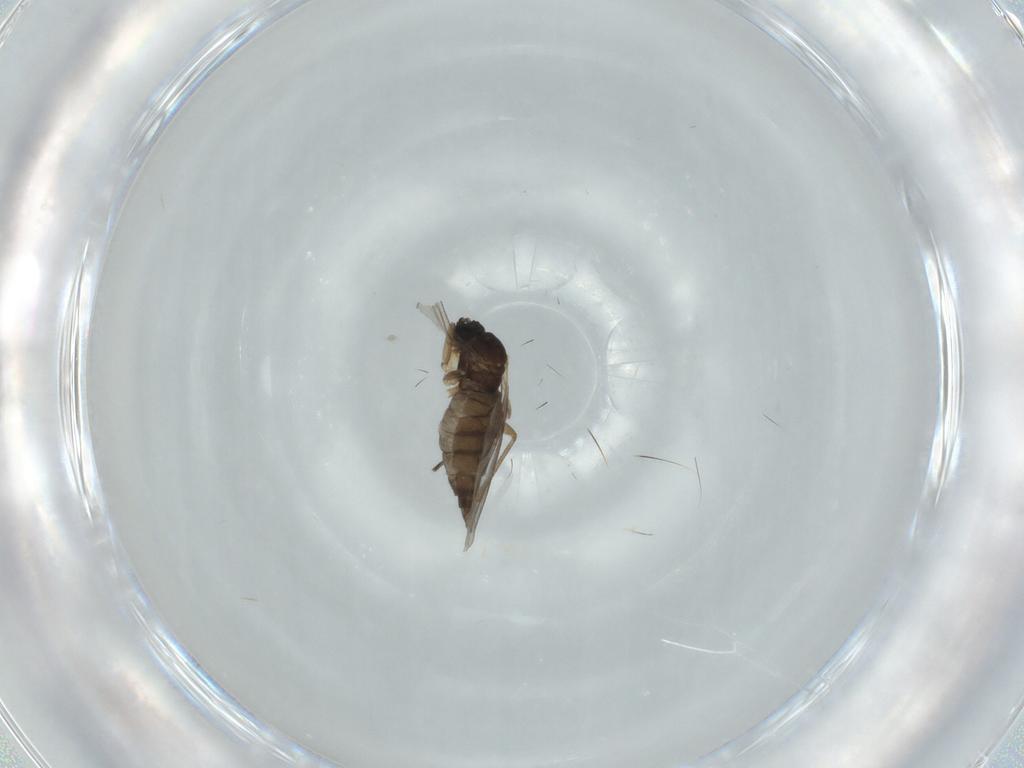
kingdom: Animalia
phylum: Arthropoda
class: Insecta
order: Diptera
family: Sciaridae
